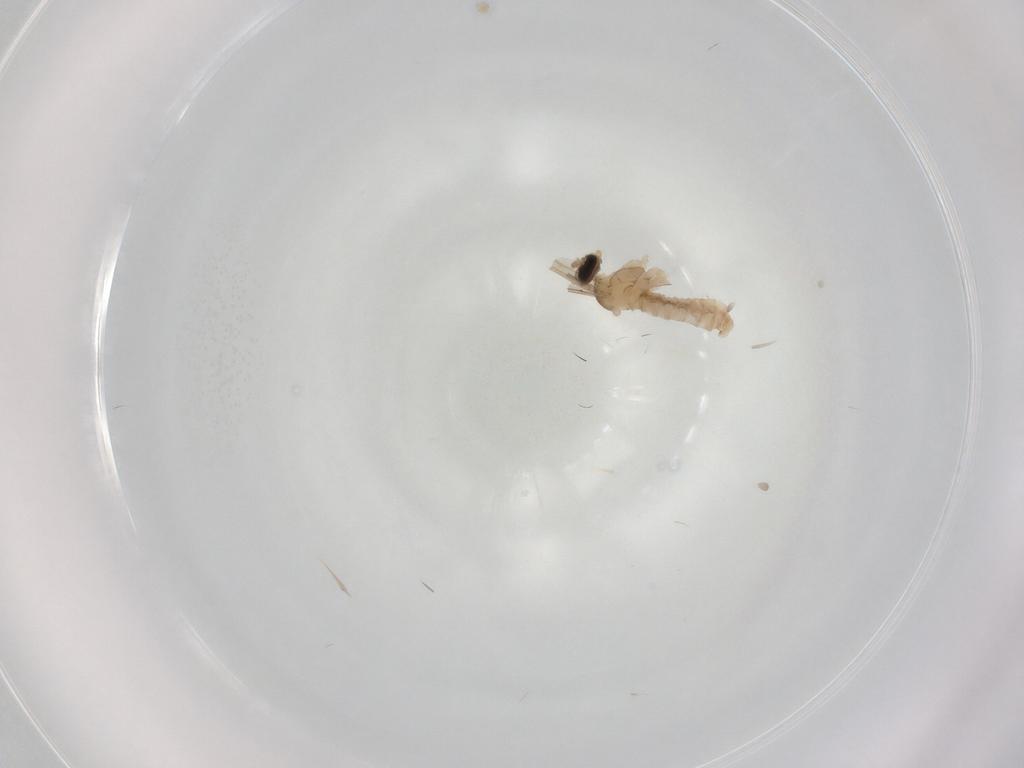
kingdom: Animalia
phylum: Arthropoda
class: Insecta
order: Diptera
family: Cecidomyiidae
